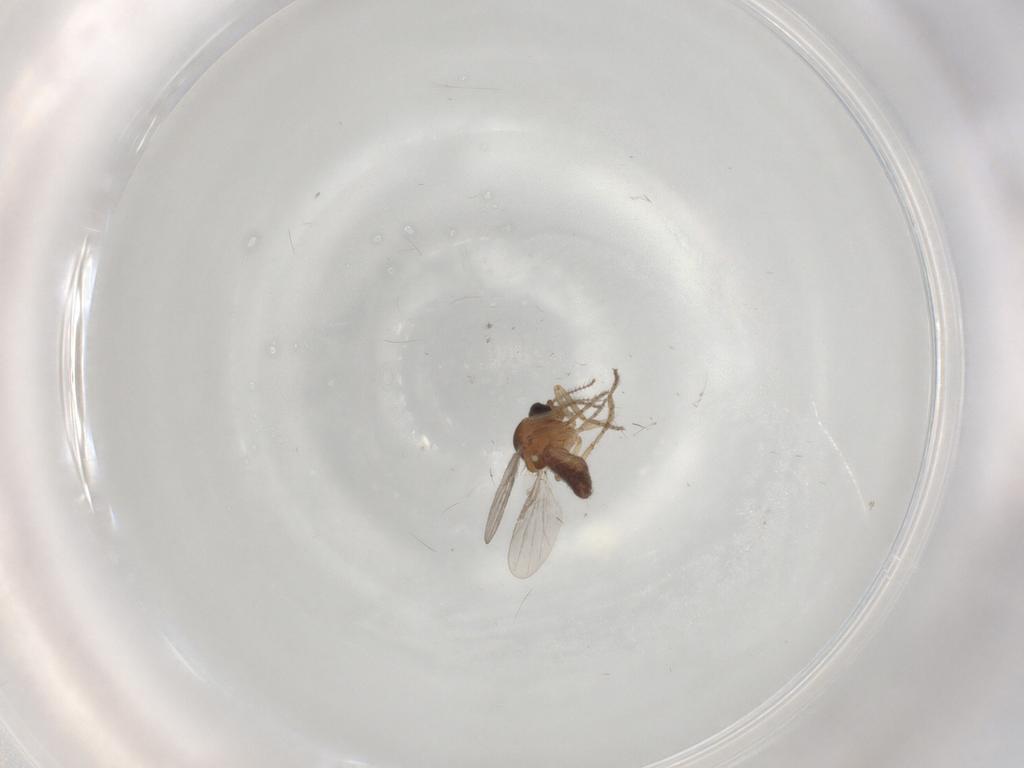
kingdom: Animalia
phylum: Arthropoda
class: Insecta
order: Diptera
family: Ceratopogonidae
